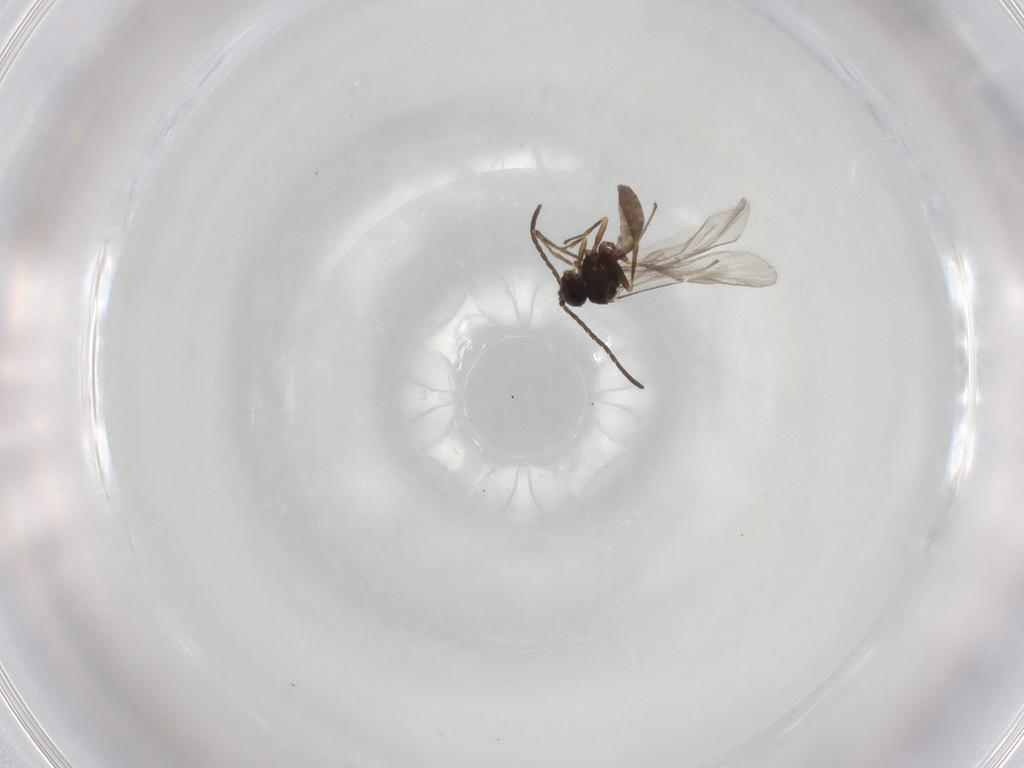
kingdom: Animalia
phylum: Arthropoda
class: Insecta
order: Hymenoptera
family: Braconidae
